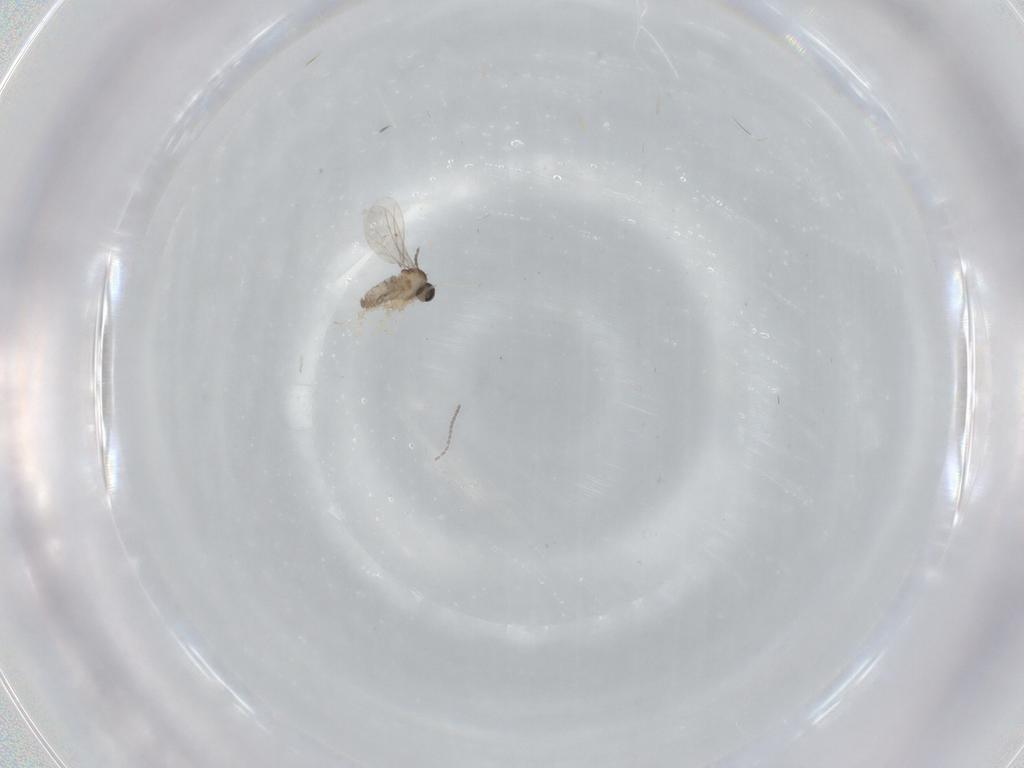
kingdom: Animalia
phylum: Arthropoda
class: Insecta
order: Diptera
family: Cecidomyiidae
